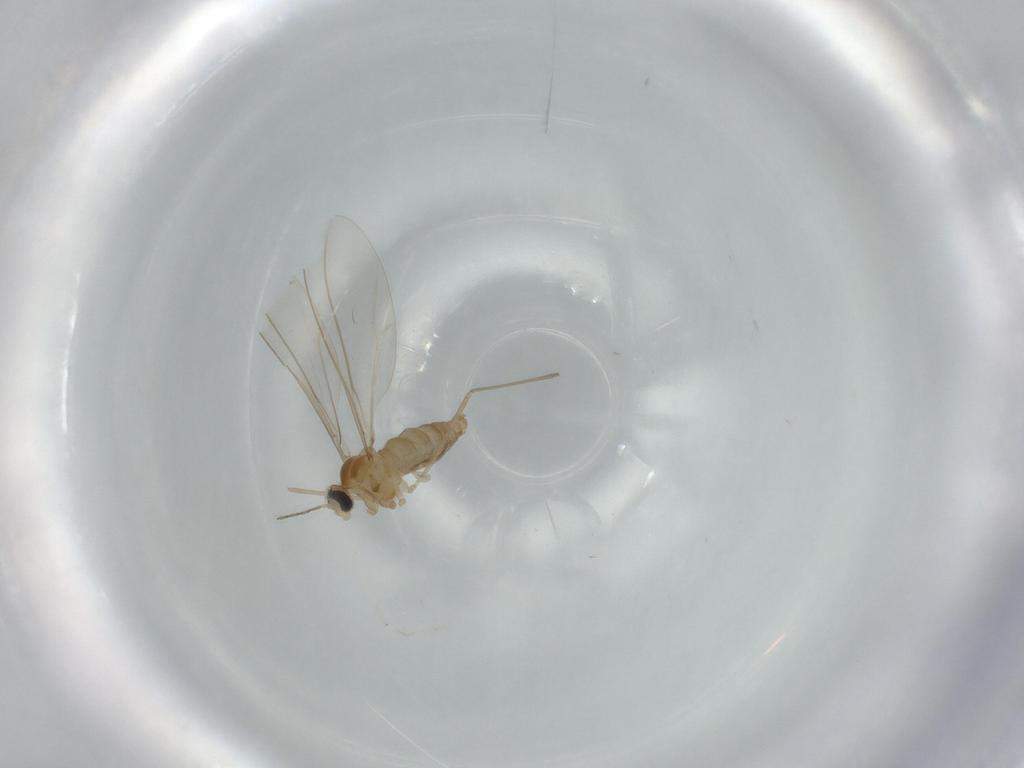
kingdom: Animalia
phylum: Arthropoda
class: Insecta
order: Diptera
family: Cecidomyiidae
